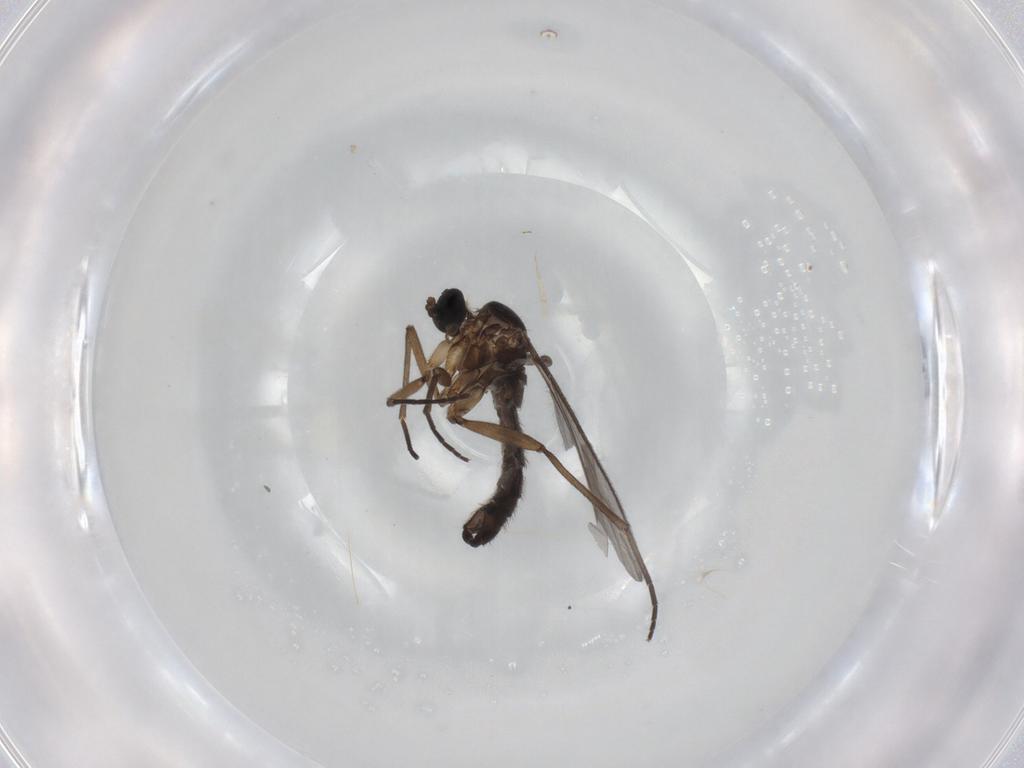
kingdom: Animalia
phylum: Arthropoda
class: Insecta
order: Diptera
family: Sciaridae
